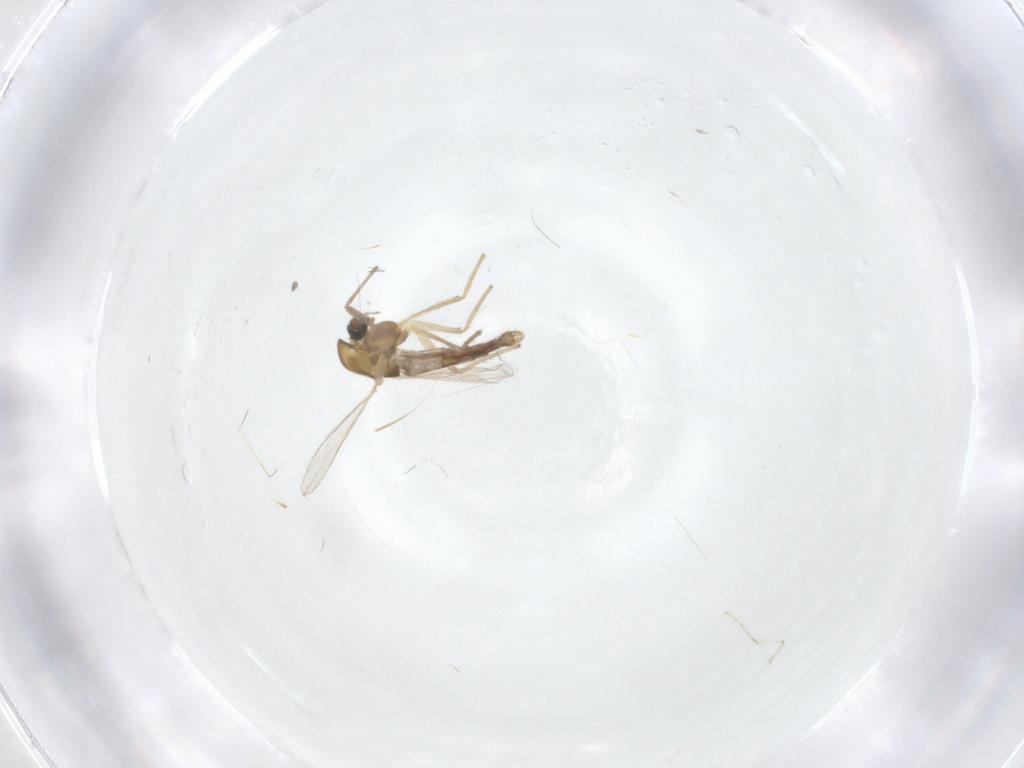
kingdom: Animalia
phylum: Arthropoda
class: Insecta
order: Diptera
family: Chironomidae
